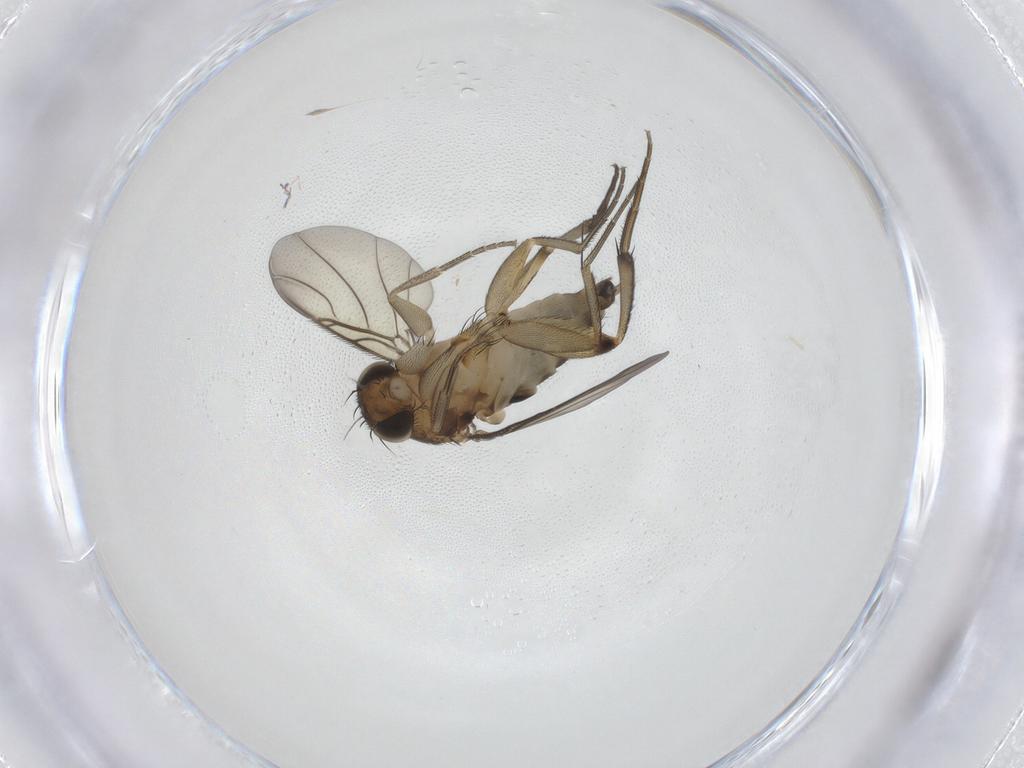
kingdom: Animalia
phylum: Arthropoda
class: Insecta
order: Diptera
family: Phoridae
